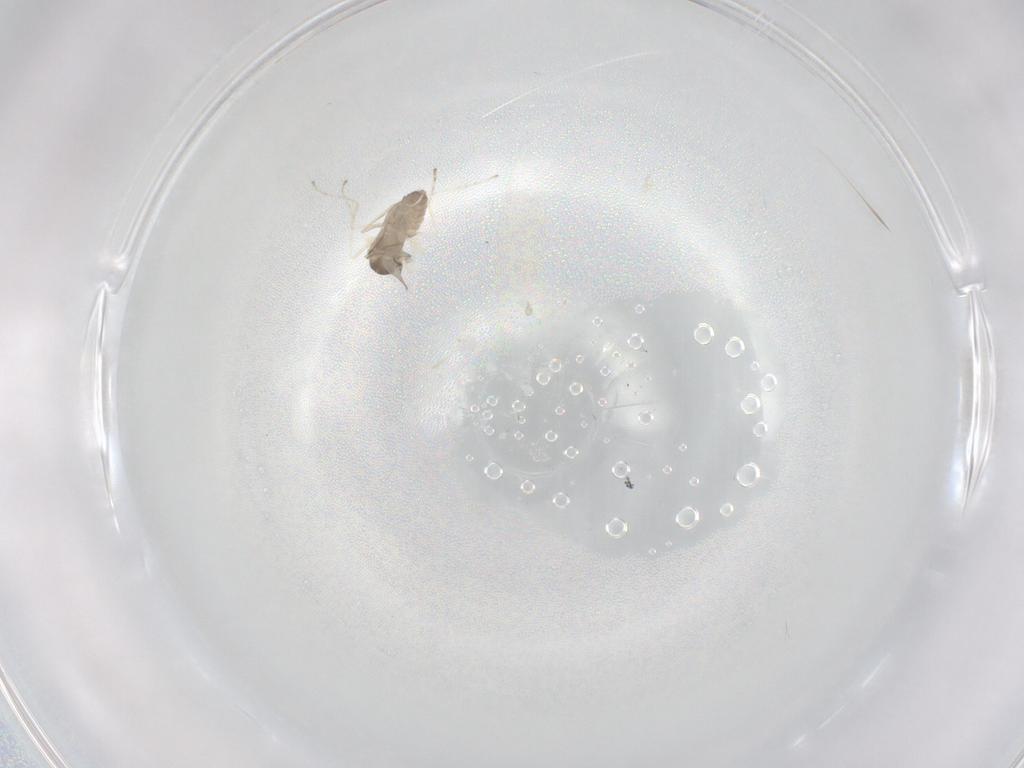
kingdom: Animalia
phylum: Arthropoda
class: Insecta
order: Diptera
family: Cecidomyiidae
